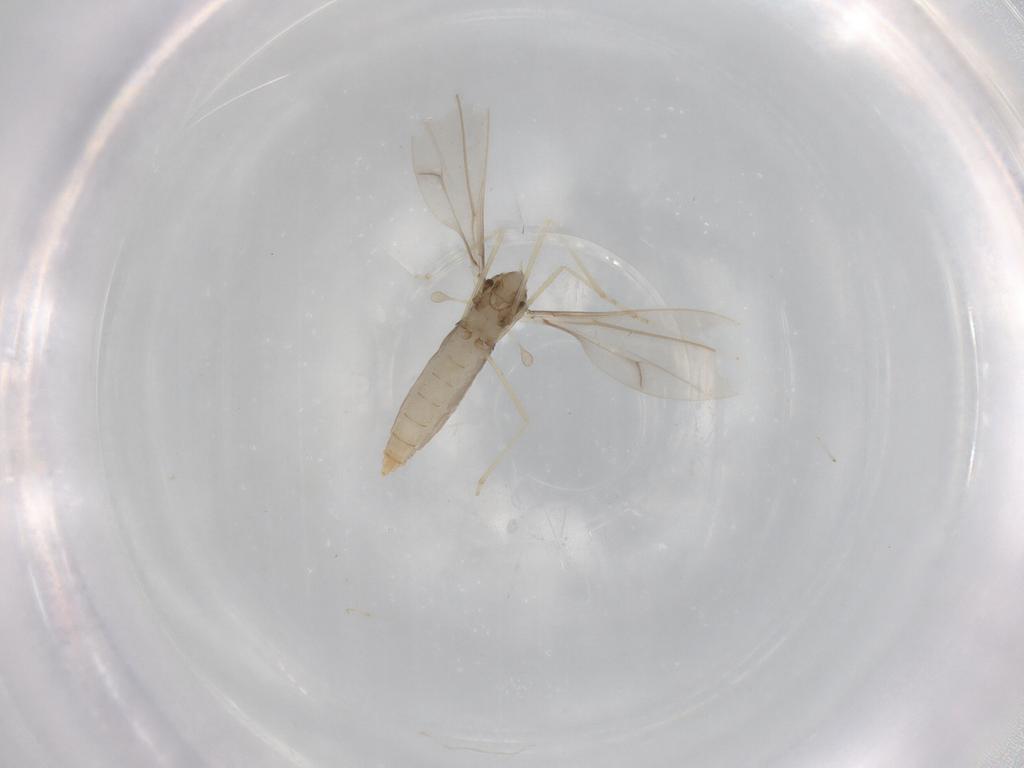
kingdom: Animalia
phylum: Arthropoda
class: Insecta
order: Diptera
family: Cecidomyiidae
